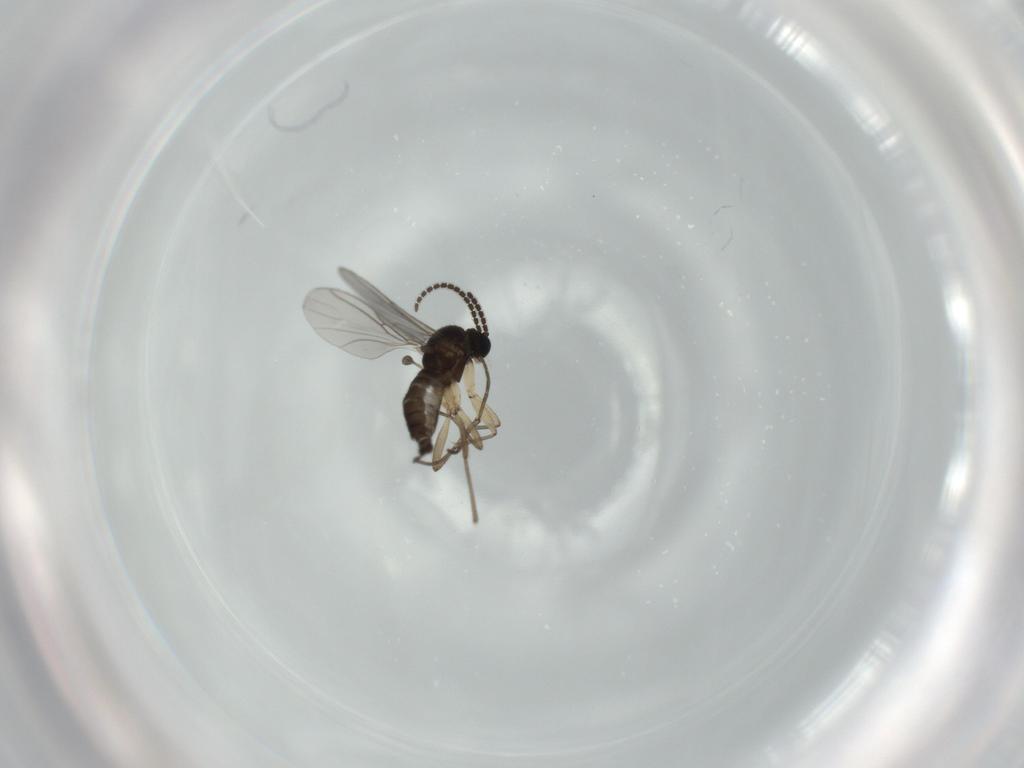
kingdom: Animalia
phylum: Arthropoda
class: Insecta
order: Diptera
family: Sciaridae
